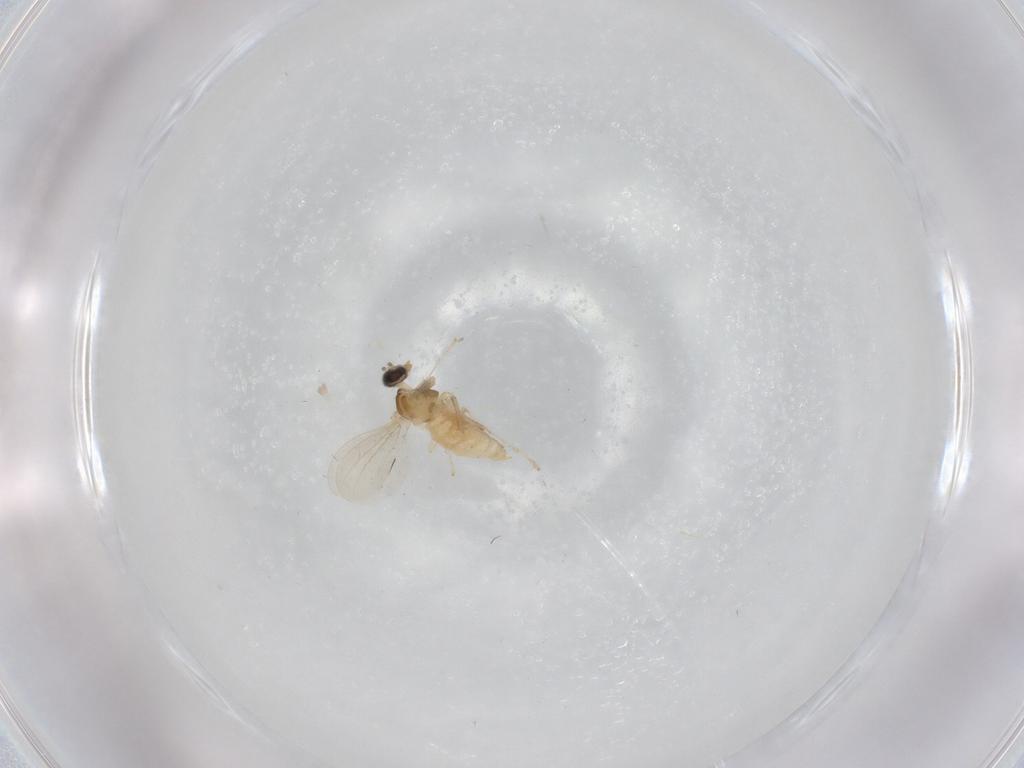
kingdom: Animalia
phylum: Arthropoda
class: Insecta
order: Diptera
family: Cecidomyiidae
